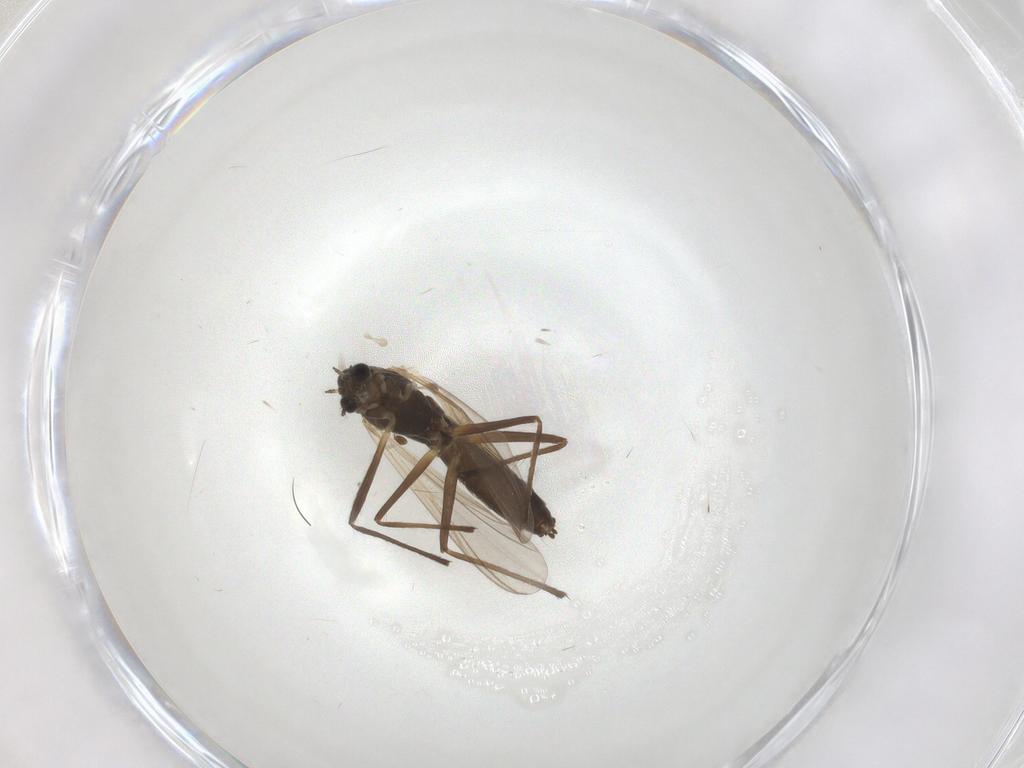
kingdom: Animalia
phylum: Arthropoda
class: Insecta
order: Diptera
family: Chironomidae
